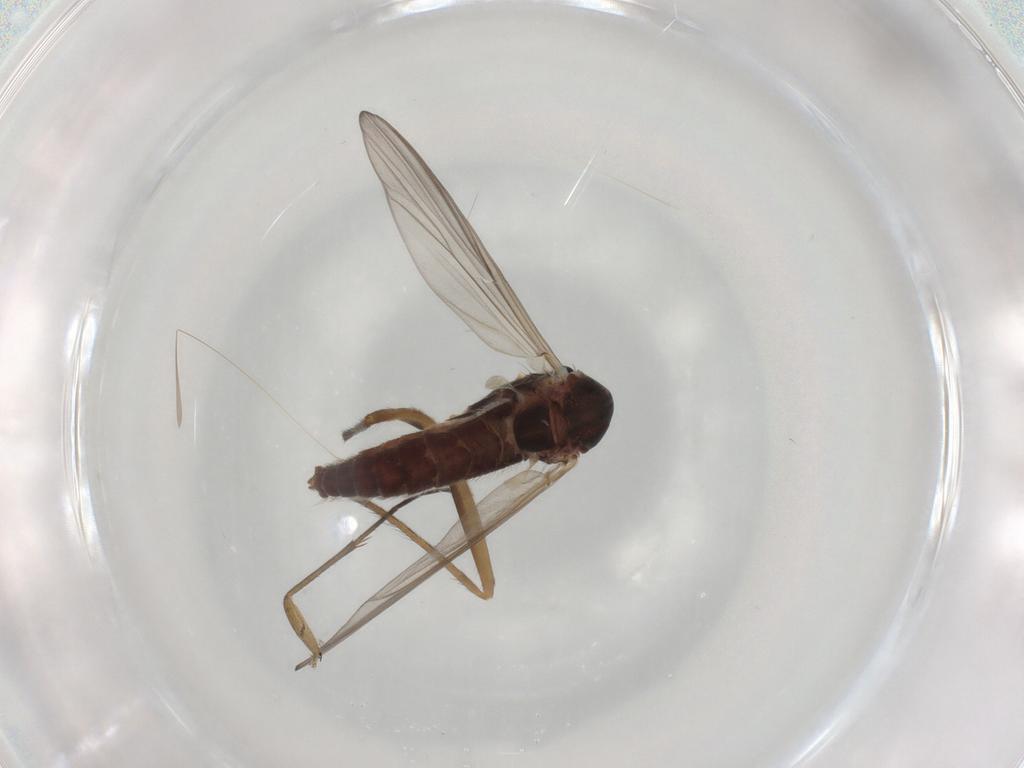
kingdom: Animalia
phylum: Arthropoda
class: Insecta
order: Diptera
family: Chironomidae
